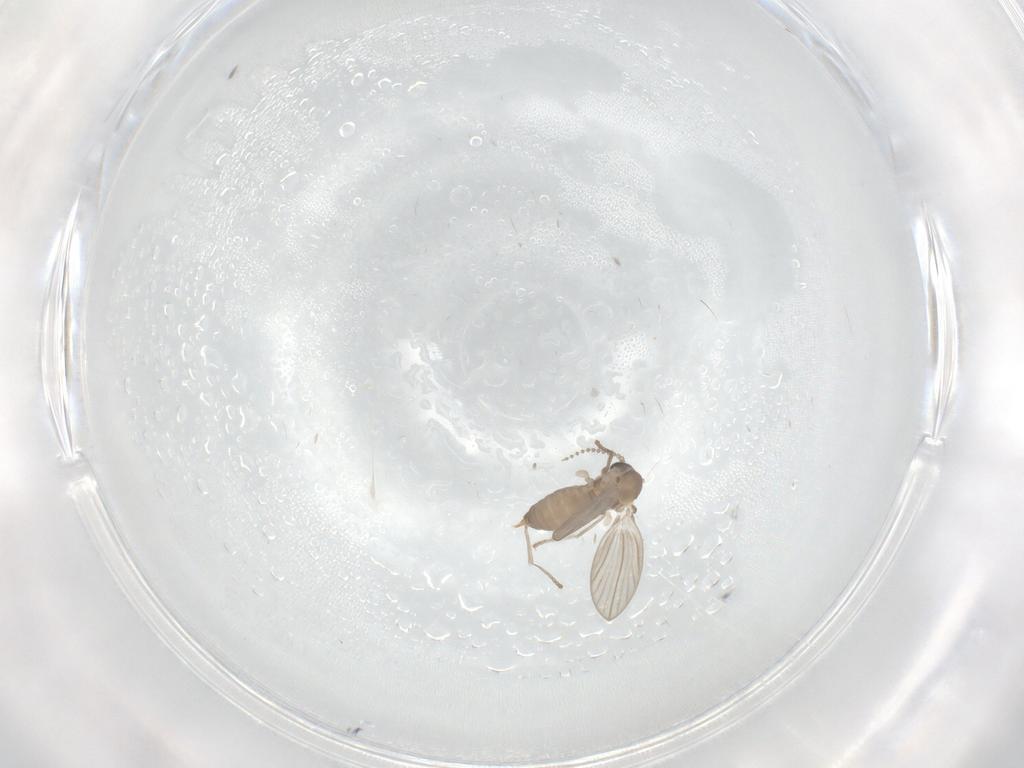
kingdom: Animalia
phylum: Arthropoda
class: Insecta
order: Diptera
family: Psychodidae
